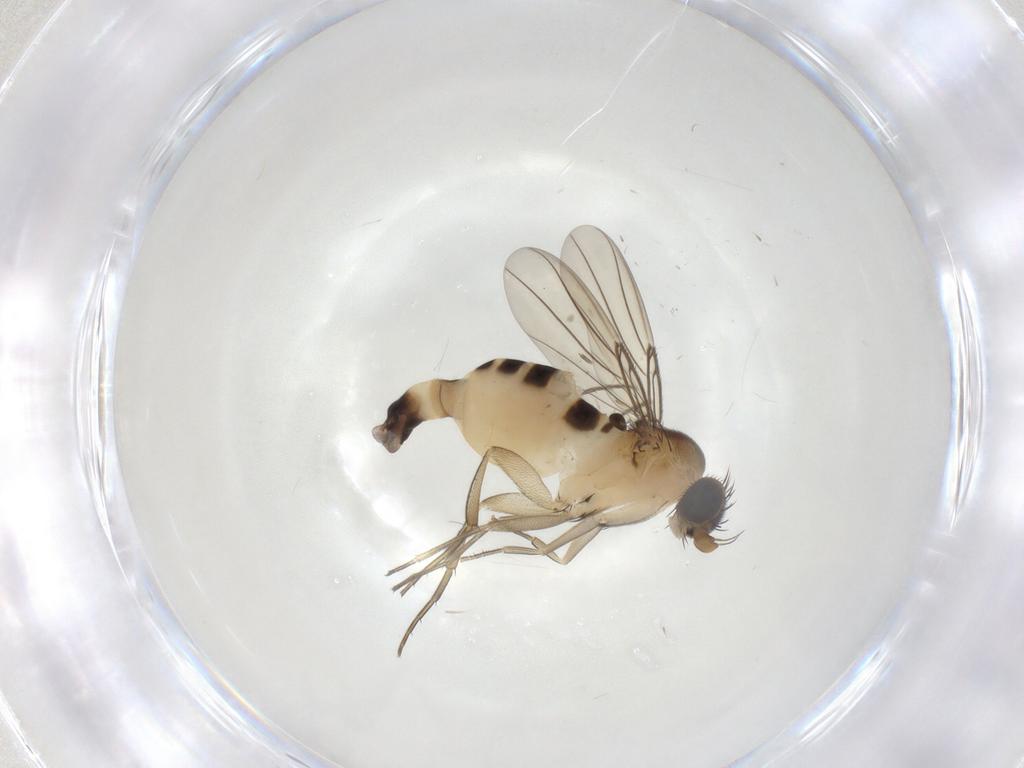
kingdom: Animalia
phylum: Arthropoda
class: Insecta
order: Diptera
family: Phoridae
